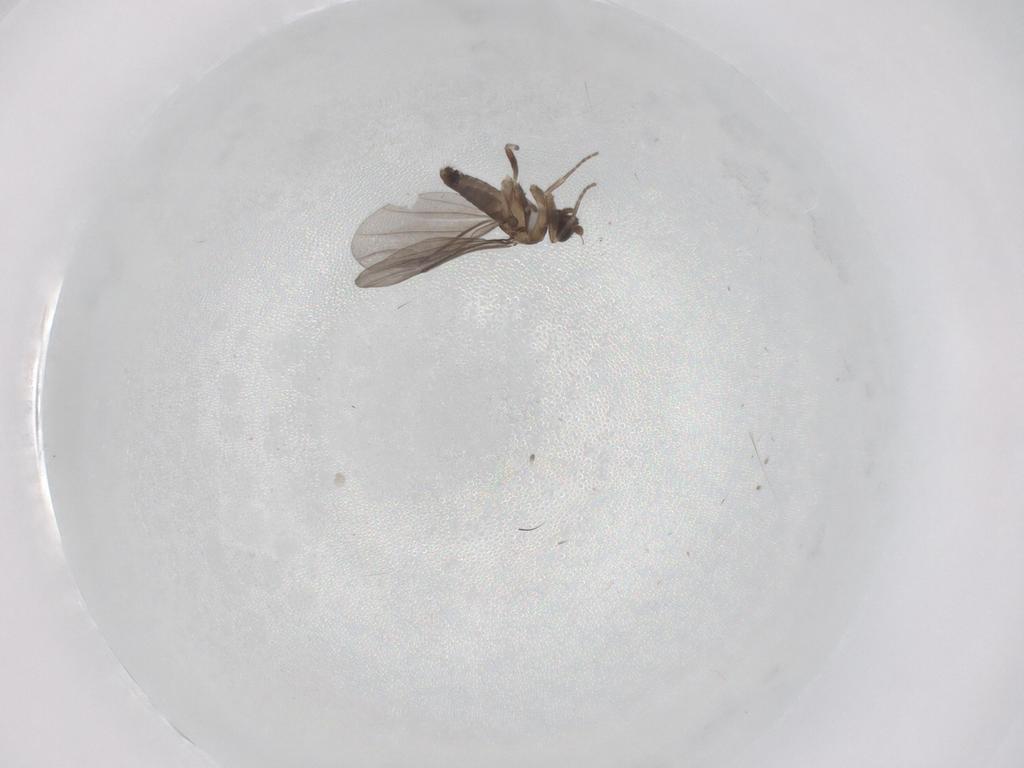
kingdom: Animalia
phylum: Arthropoda
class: Insecta
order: Diptera
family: Phoridae
